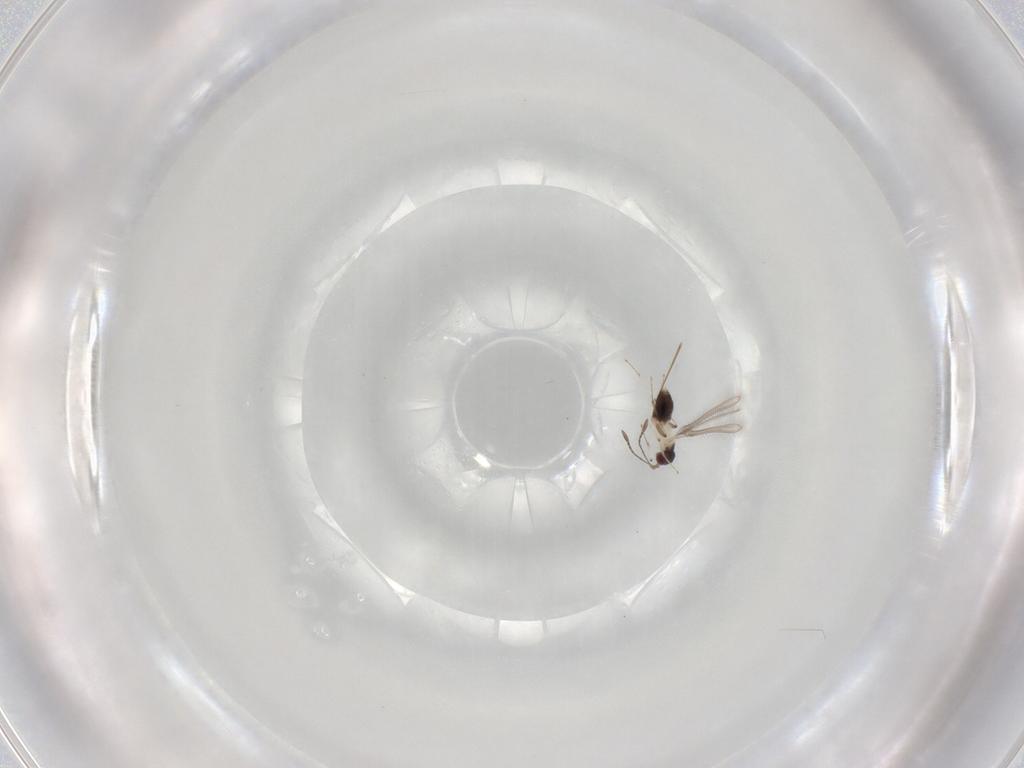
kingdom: Animalia
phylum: Arthropoda
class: Insecta
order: Hymenoptera
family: Mymaridae
